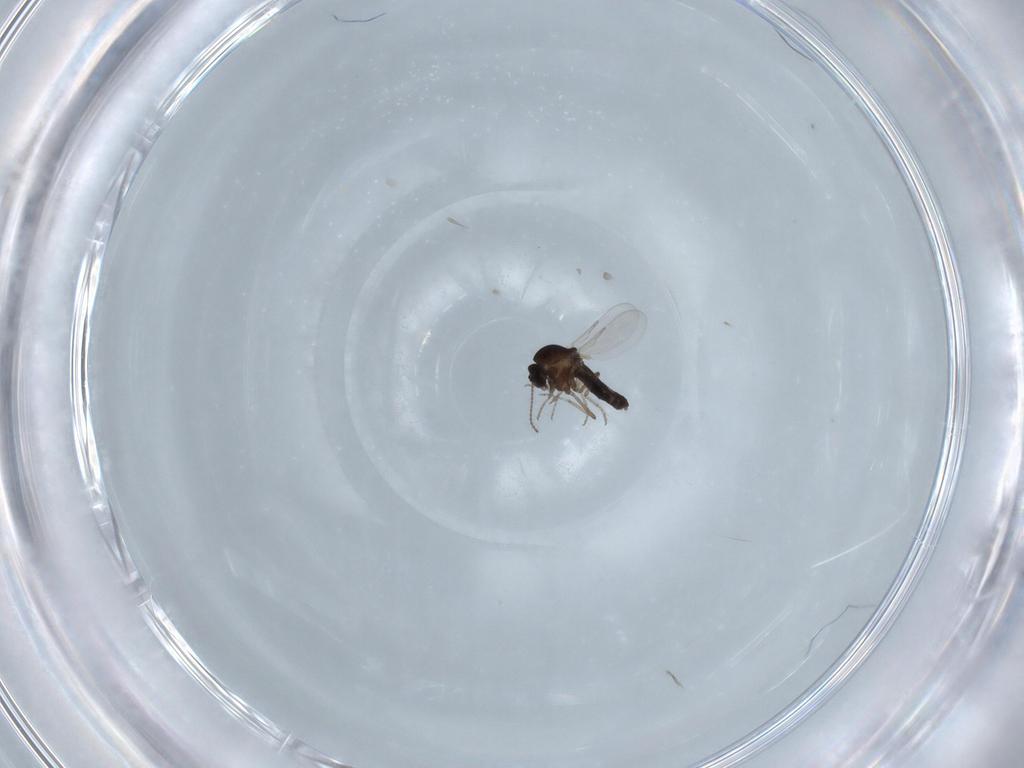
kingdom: Animalia
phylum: Arthropoda
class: Insecta
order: Diptera
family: Ceratopogonidae
